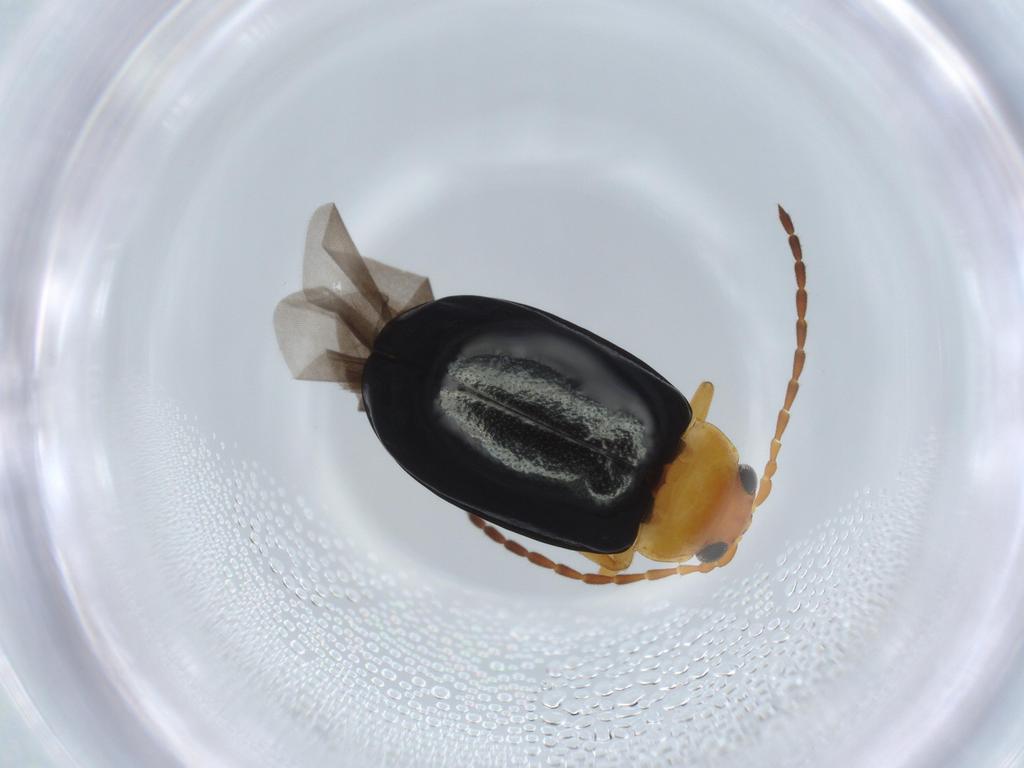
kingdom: Animalia
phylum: Arthropoda
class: Insecta
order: Coleoptera
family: Chrysomelidae
